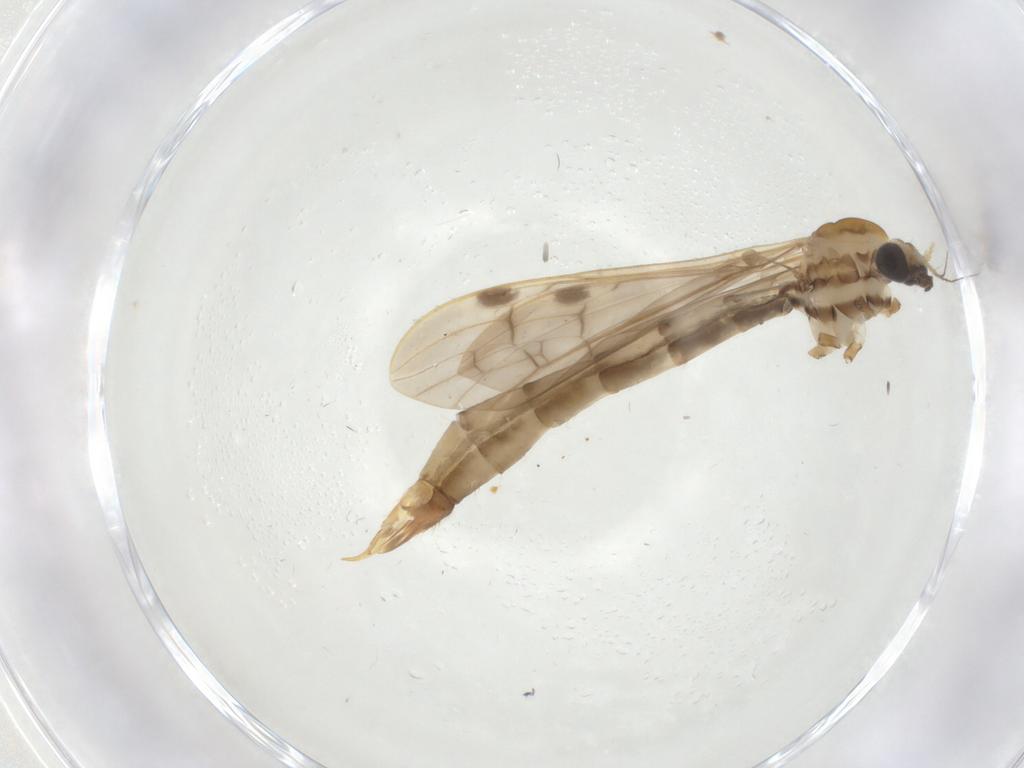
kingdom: Animalia
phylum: Arthropoda
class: Insecta
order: Diptera
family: Limoniidae
